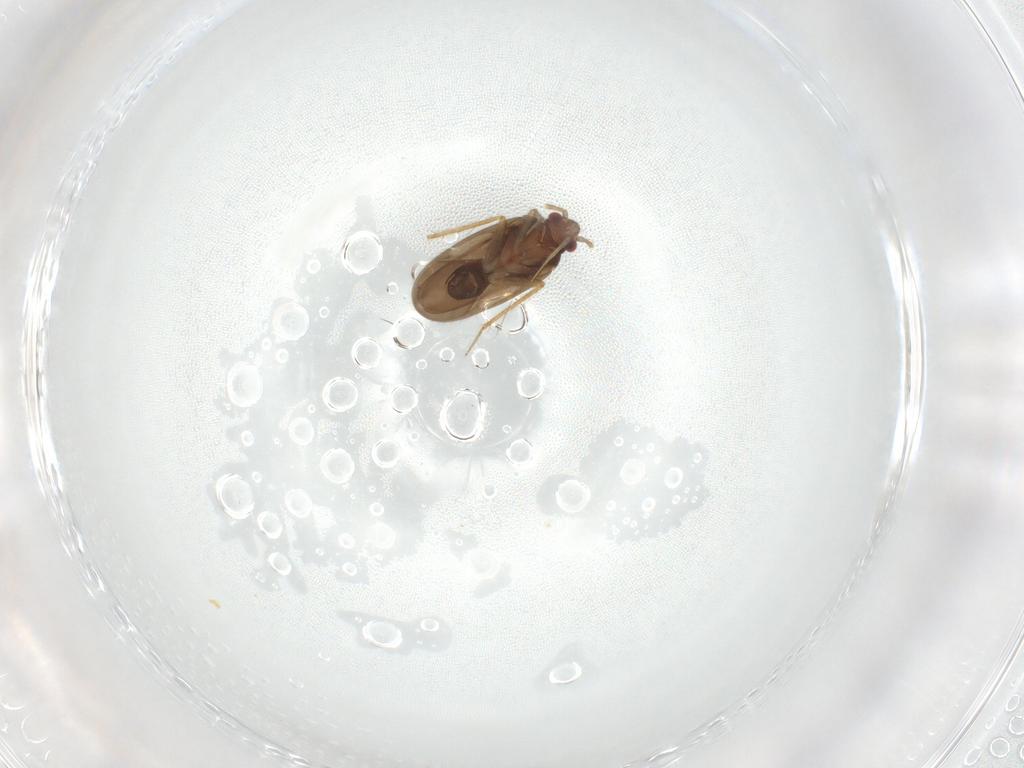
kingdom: Animalia
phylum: Arthropoda
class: Insecta
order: Hemiptera
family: Ceratocombidae
